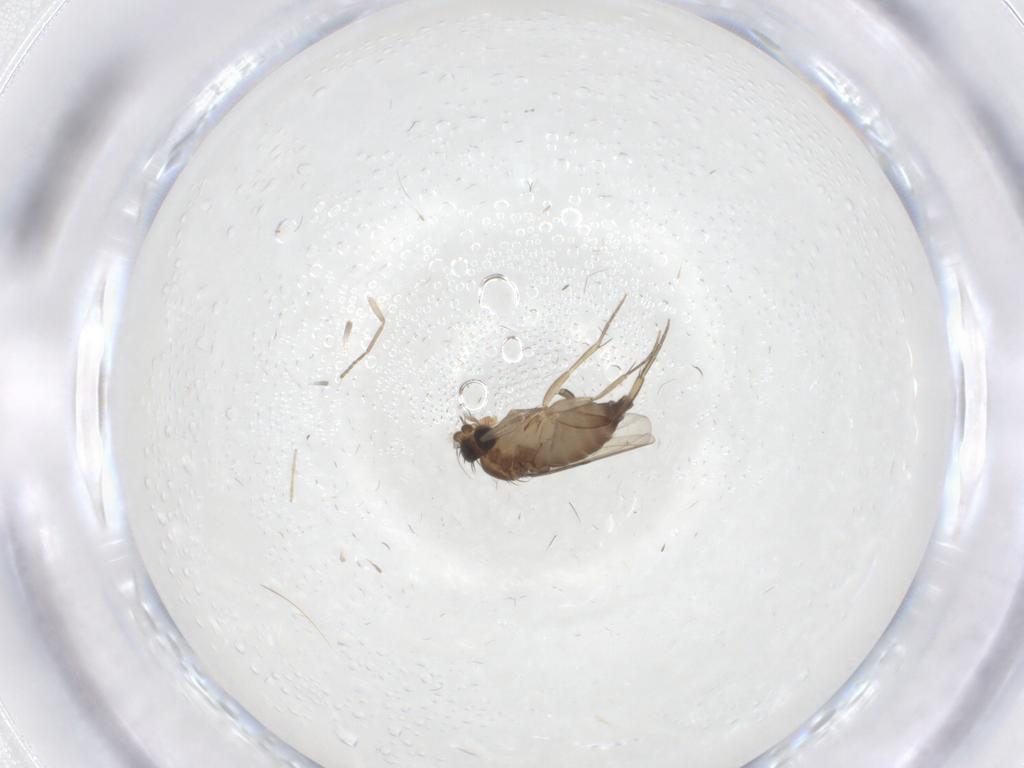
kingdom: Animalia
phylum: Arthropoda
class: Insecta
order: Diptera
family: Phoridae
